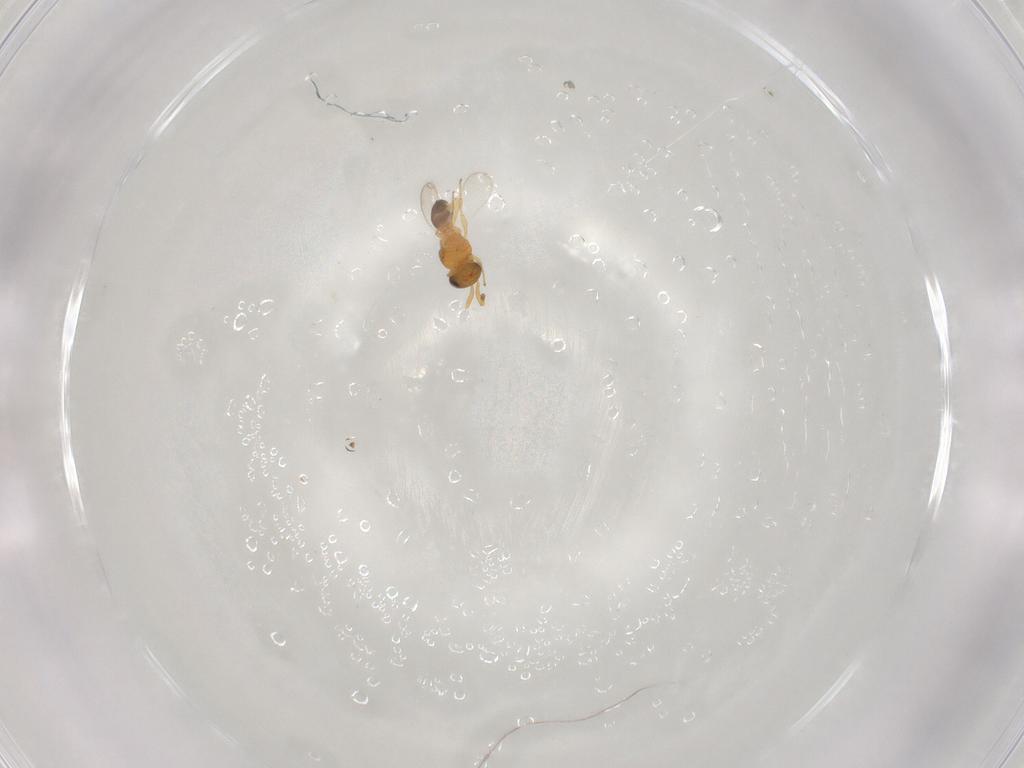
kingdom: Animalia
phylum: Arthropoda
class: Insecta
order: Hymenoptera
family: Platygastridae
